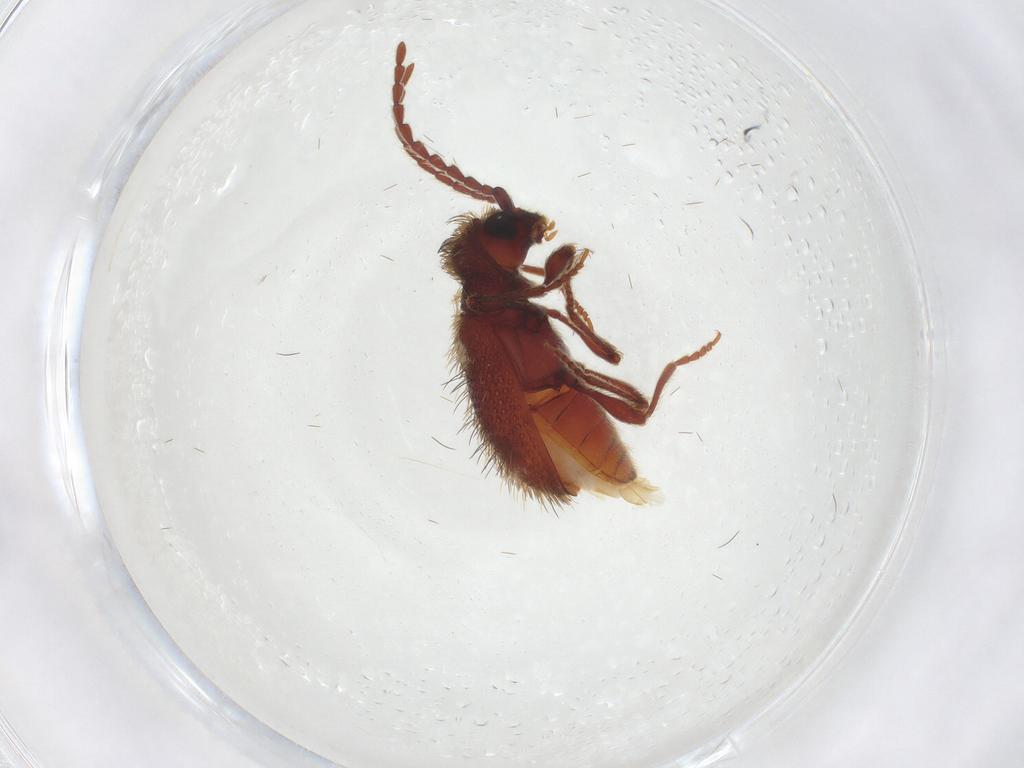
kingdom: Animalia
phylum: Arthropoda
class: Insecta
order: Coleoptera
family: Ptinidae
